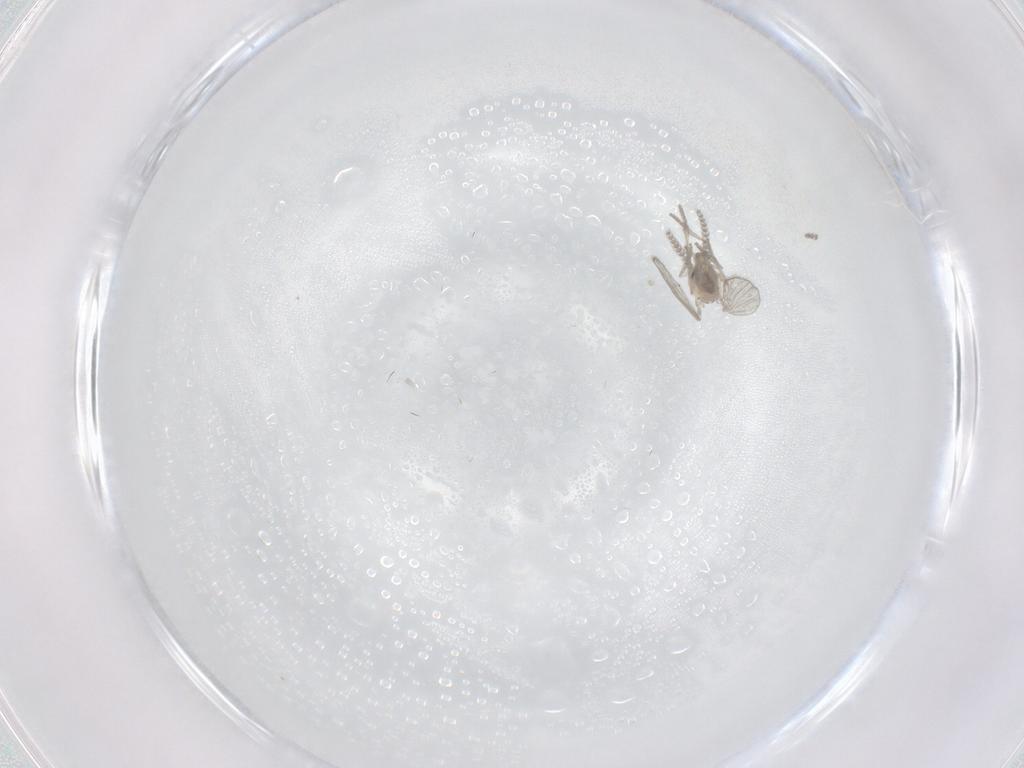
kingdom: Animalia
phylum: Arthropoda
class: Insecta
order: Diptera
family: Psychodidae
